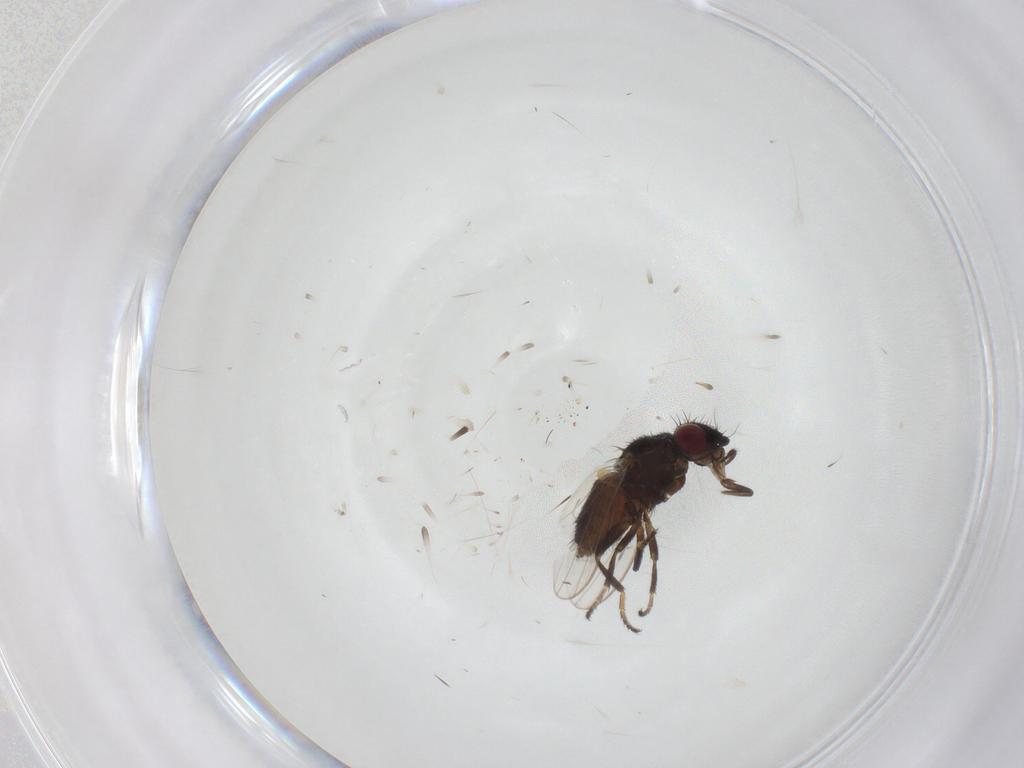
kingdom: Animalia
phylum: Arthropoda
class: Insecta
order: Diptera
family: Milichiidae
